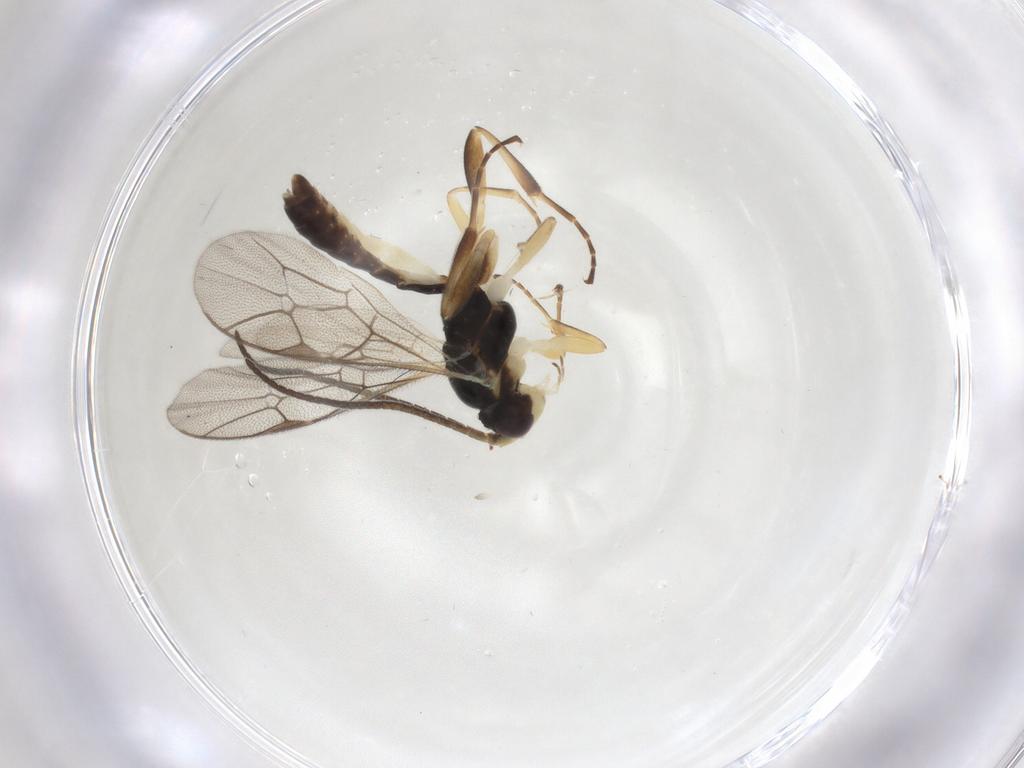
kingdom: Animalia
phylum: Arthropoda
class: Insecta
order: Hymenoptera
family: Ichneumonidae
